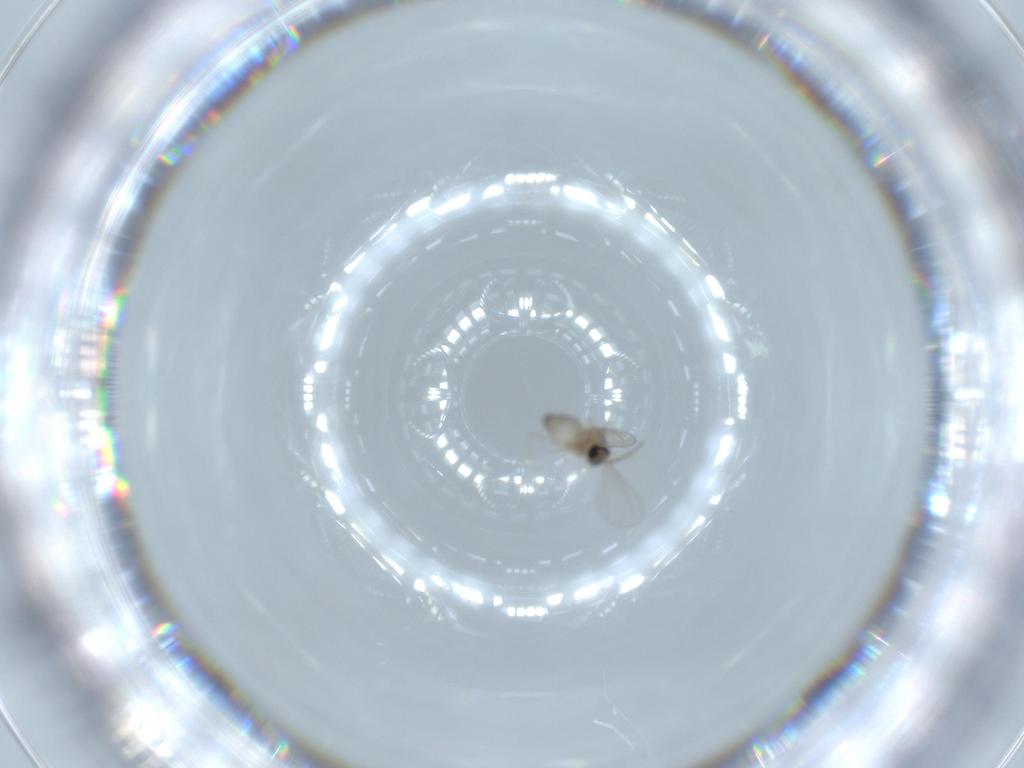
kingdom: Animalia
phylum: Arthropoda
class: Insecta
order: Diptera
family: Cecidomyiidae
